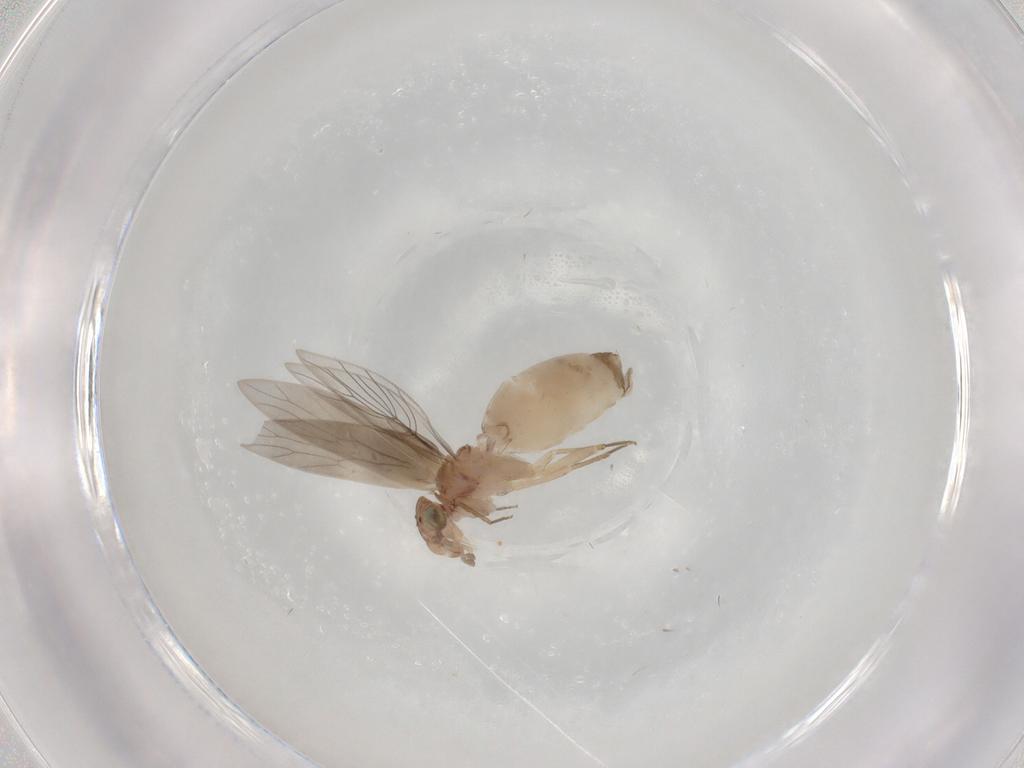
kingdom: Animalia
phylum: Arthropoda
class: Insecta
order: Psocodea
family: Lepidopsocidae
